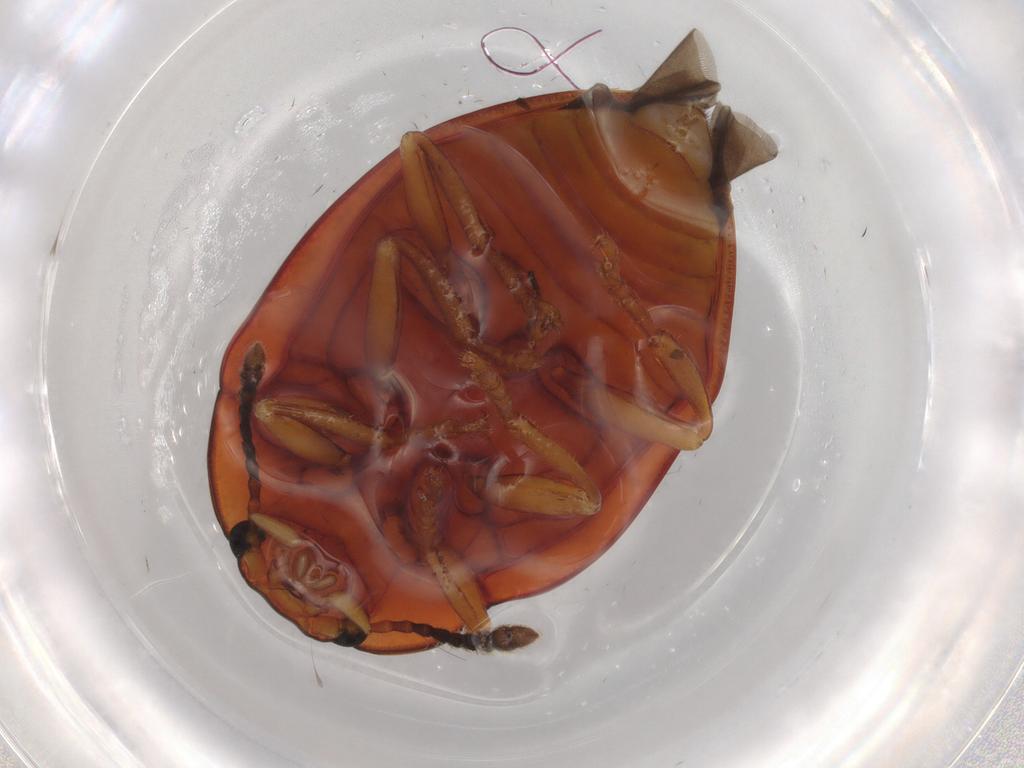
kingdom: Animalia
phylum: Arthropoda
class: Insecta
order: Coleoptera
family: Erotylidae
